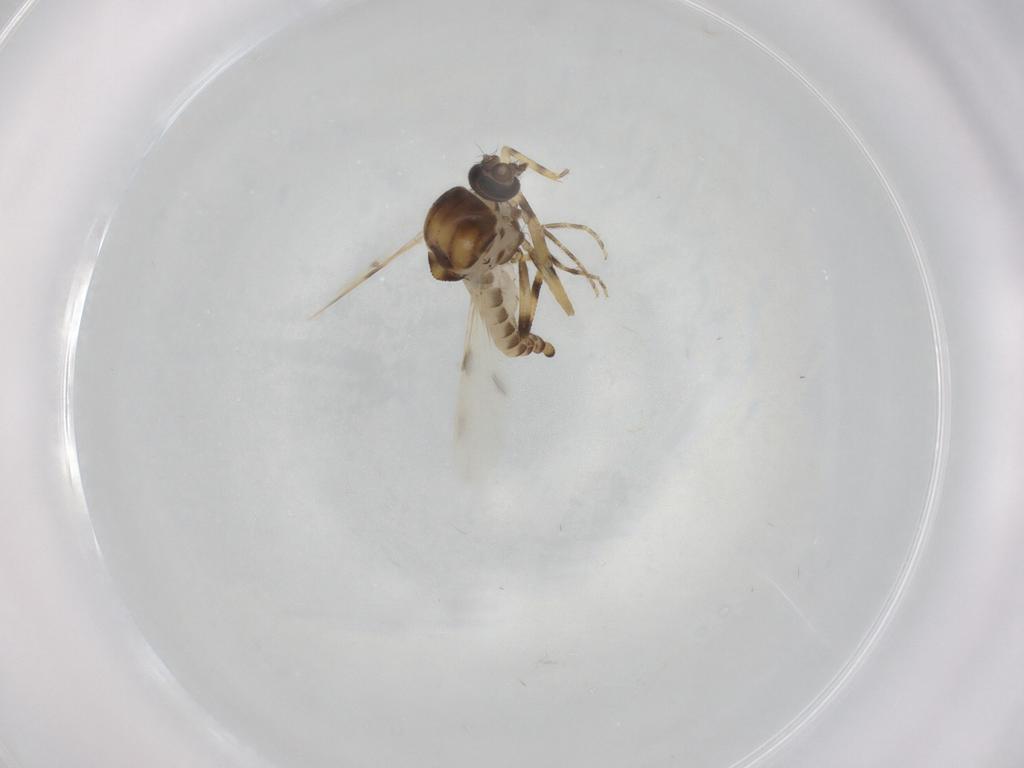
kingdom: Animalia
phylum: Arthropoda
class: Insecta
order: Diptera
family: Ceratopogonidae
